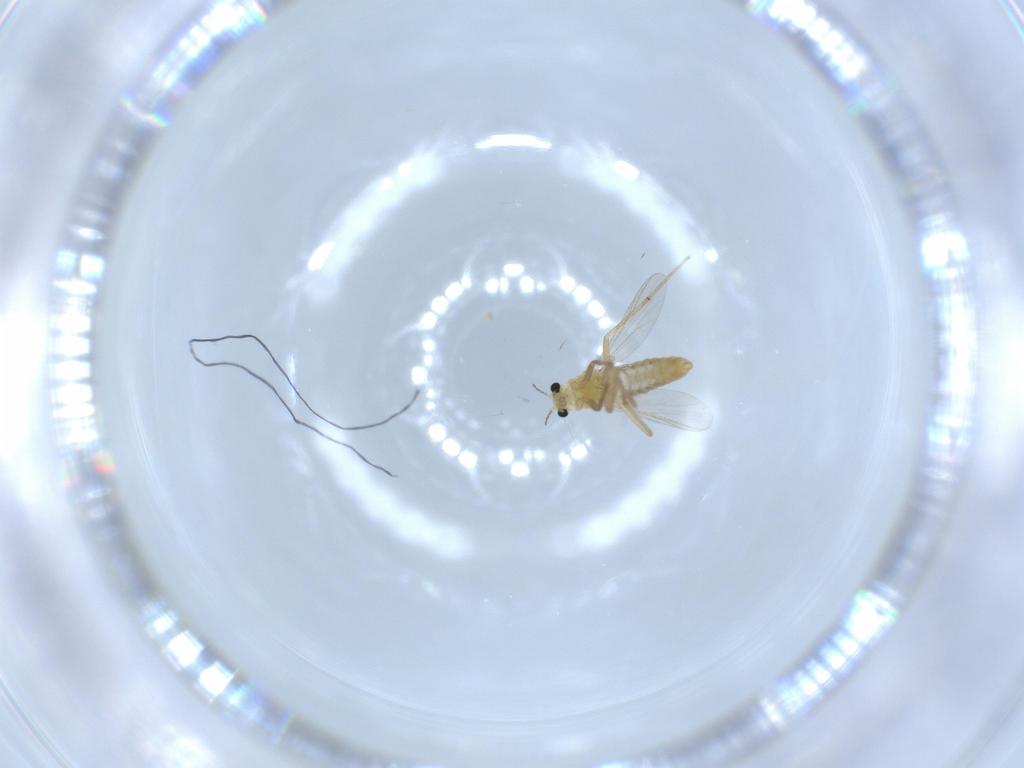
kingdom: Animalia
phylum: Arthropoda
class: Insecta
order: Diptera
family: Chironomidae
